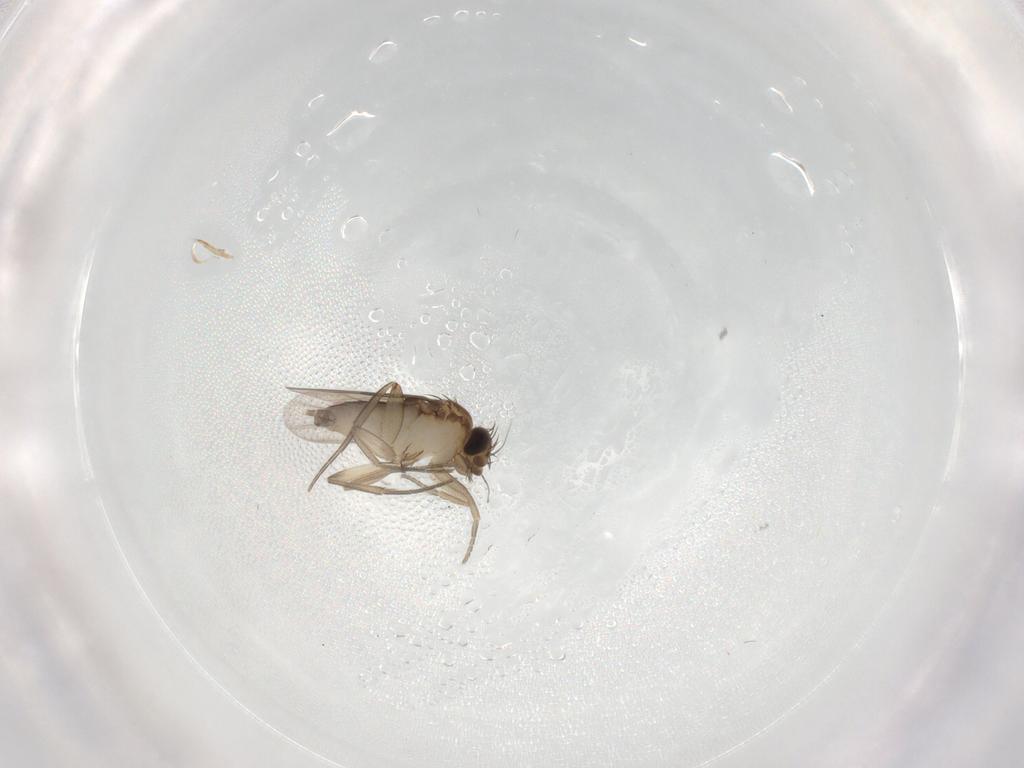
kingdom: Animalia
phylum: Arthropoda
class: Insecta
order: Diptera
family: Phoridae
